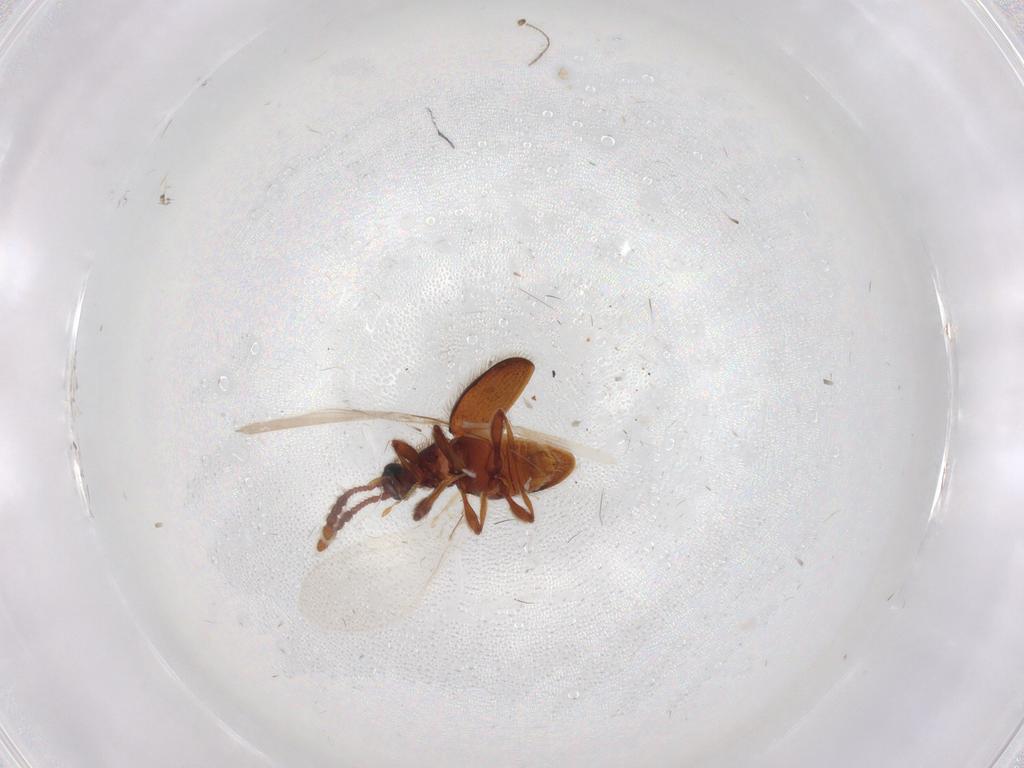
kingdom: Animalia
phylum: Arthropoda
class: Insecta
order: Coleoptera
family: Staphylinidae
